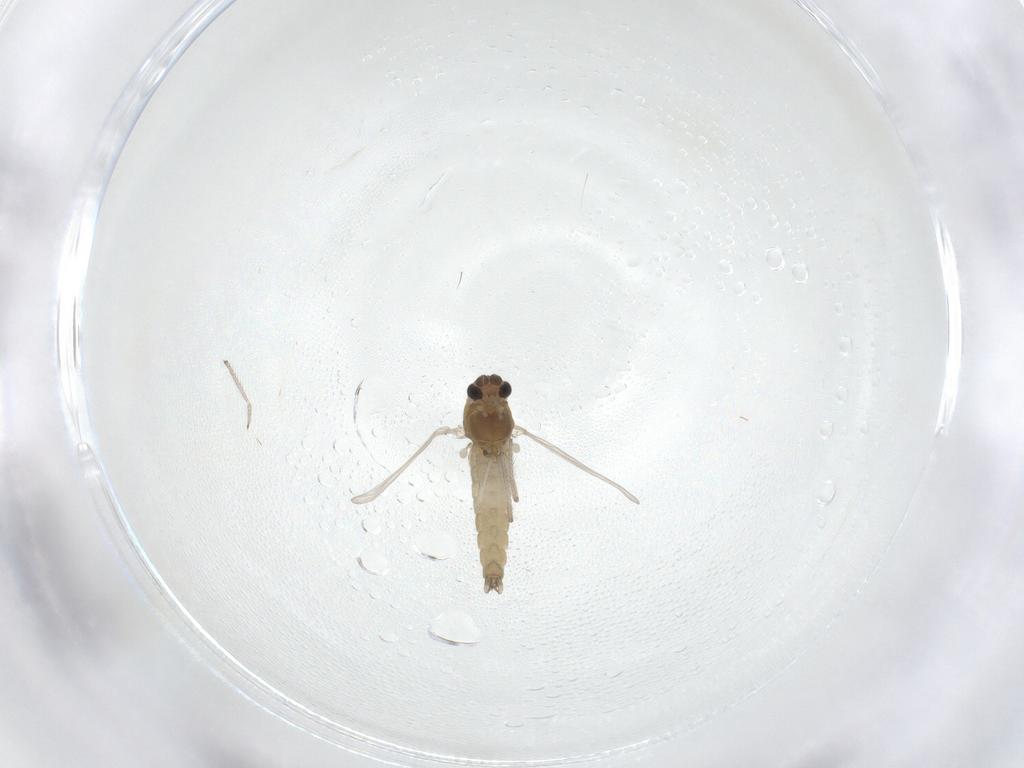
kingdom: Animalia
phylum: Arthropoda
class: Insecta
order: Diptera
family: Chironomidae
